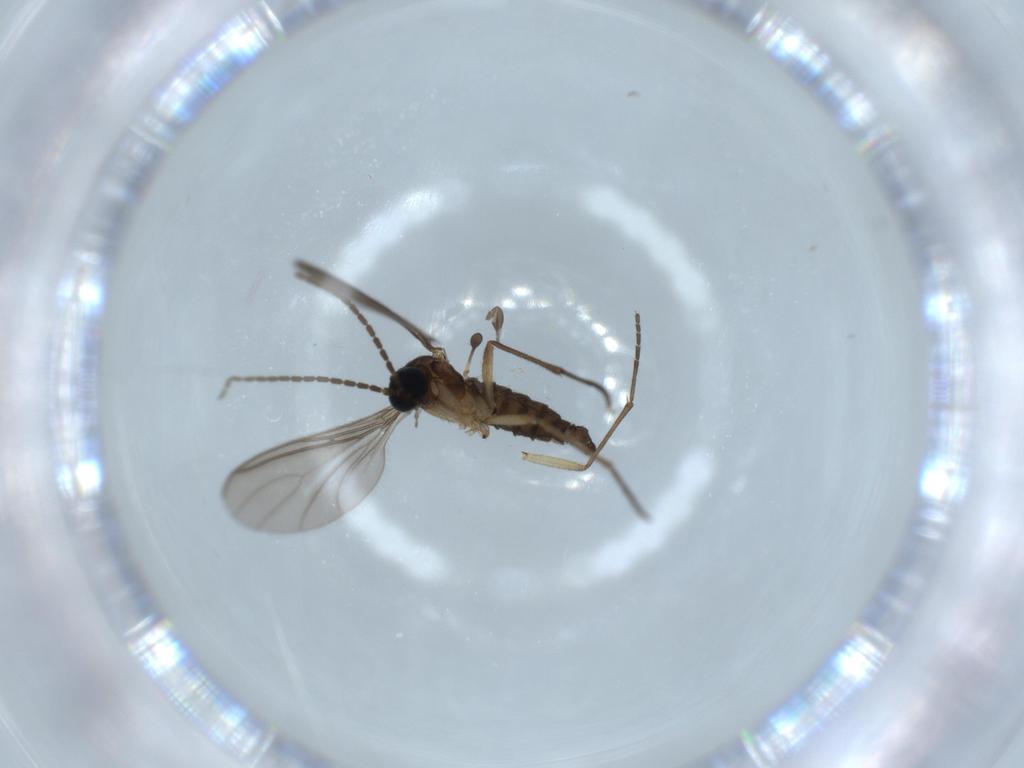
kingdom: Animalia
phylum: Arthropoda
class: Insecta
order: Diptera
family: Sciaridae
